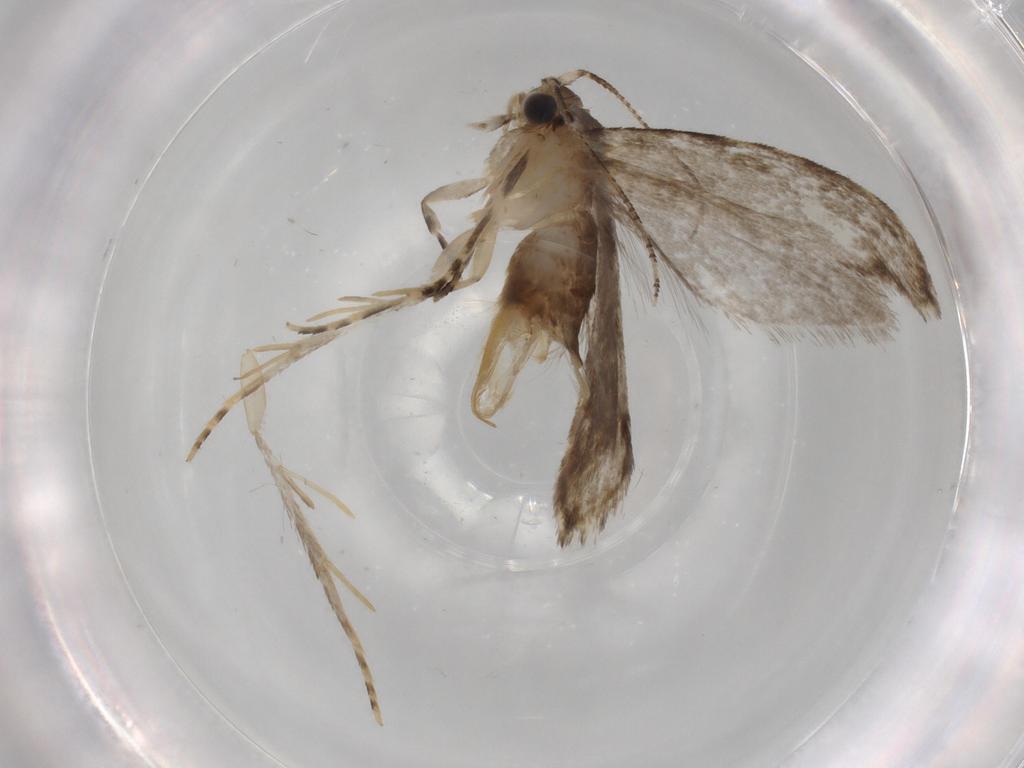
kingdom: Animalia
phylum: Arthropoda
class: Insecta
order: Lepidoptera
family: Tineidae
